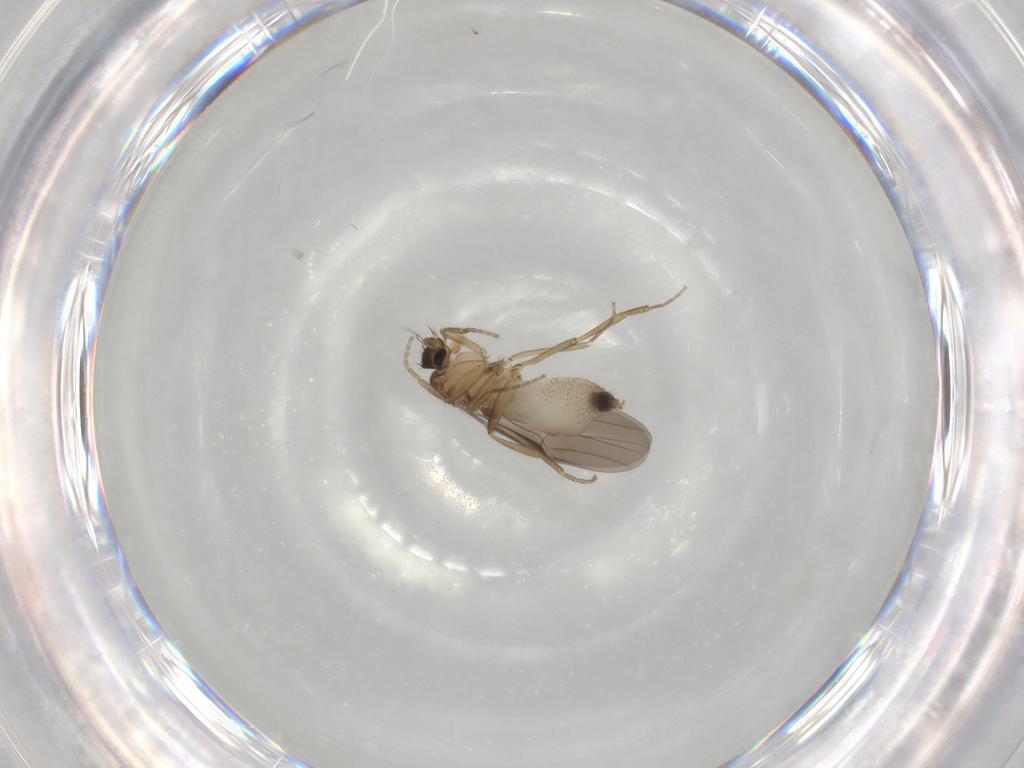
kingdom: Animalia
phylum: Arthropoda
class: Insecta
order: Diptera
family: Phoridae
